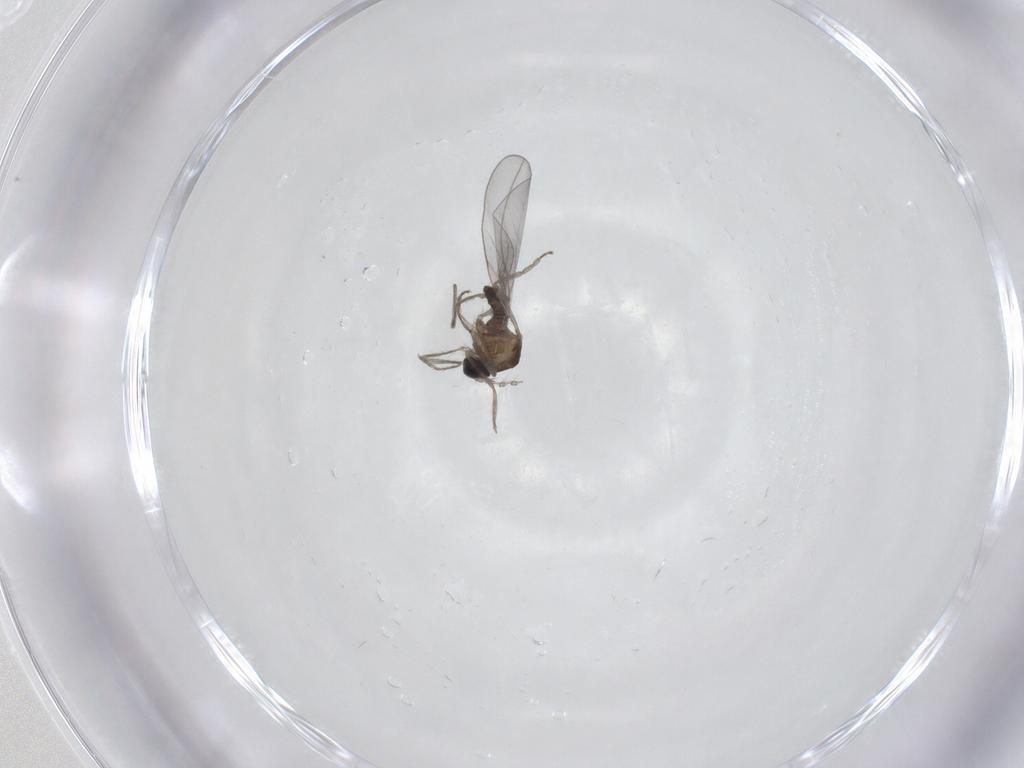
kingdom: Animalia
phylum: Arthropoda
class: Insecta
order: Diptera
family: Cecidomyiidae
